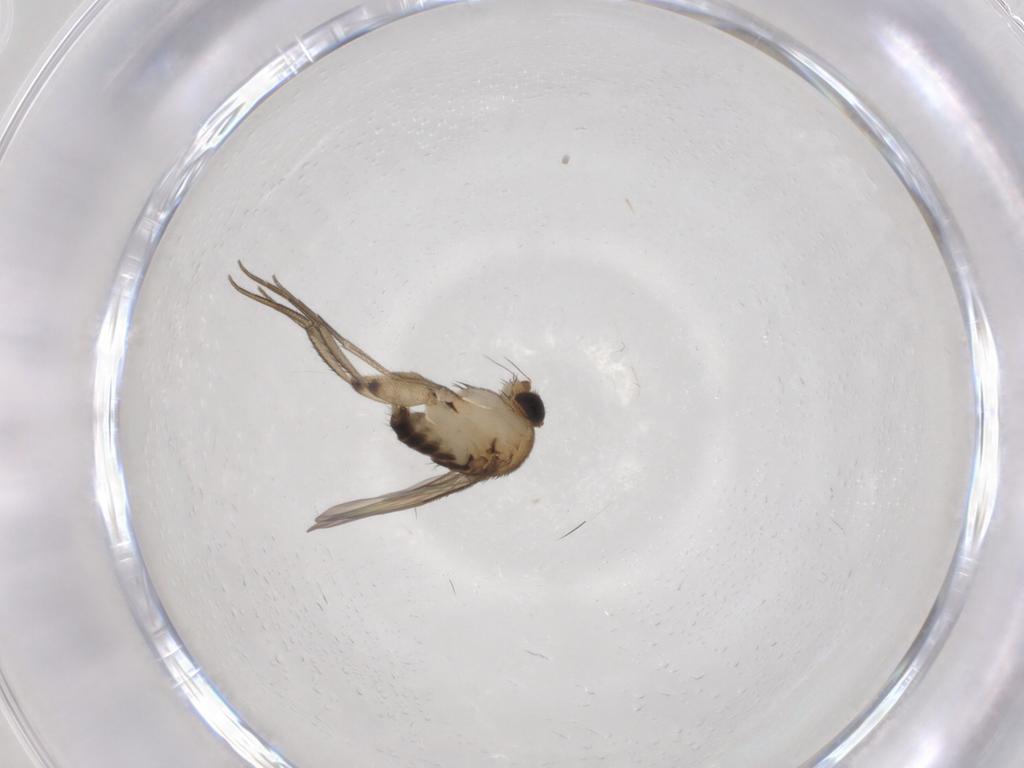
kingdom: Animalia
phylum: Arthropoda
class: Insecta
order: Diptera
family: Phoridae
